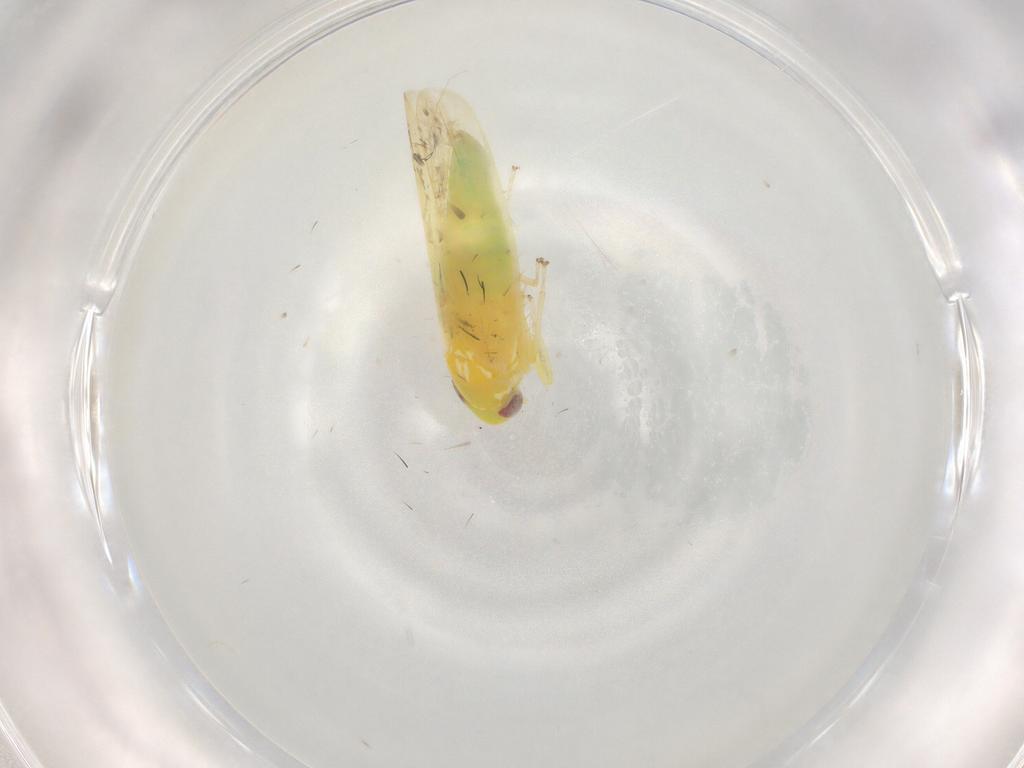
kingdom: Animalia
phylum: Arthropoda
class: Insecta
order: Hemiptera
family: Cicadellidae
